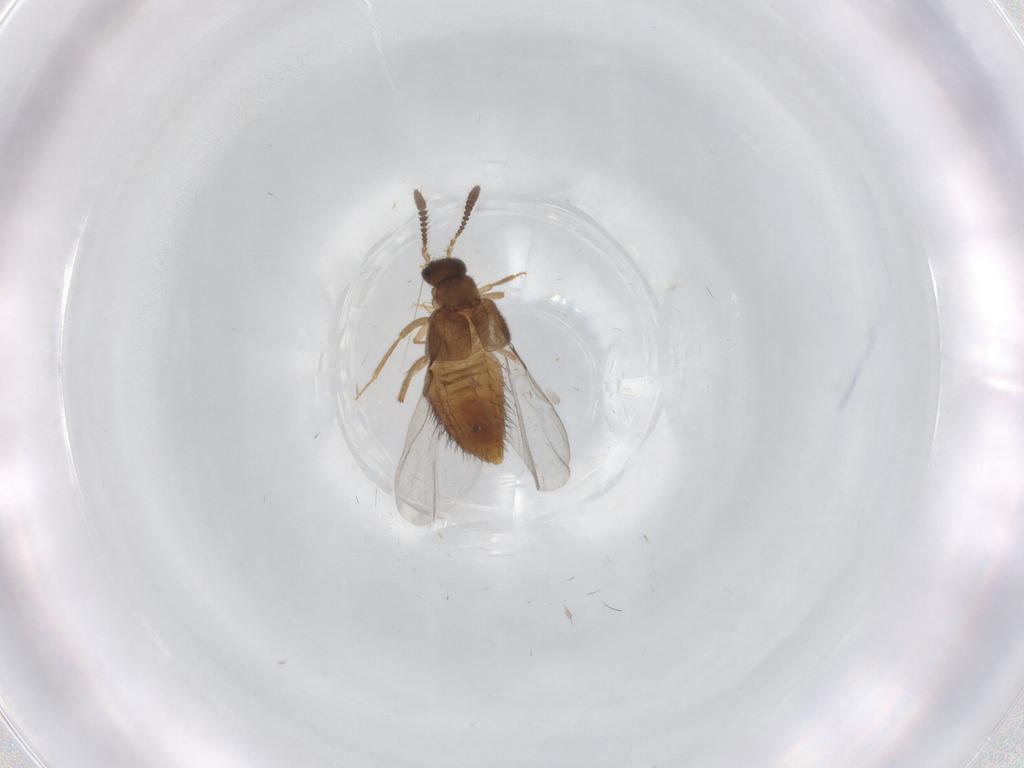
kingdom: Animalia
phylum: Arthropoda
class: Insecta
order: Coleoptera
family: Staphylinidae
